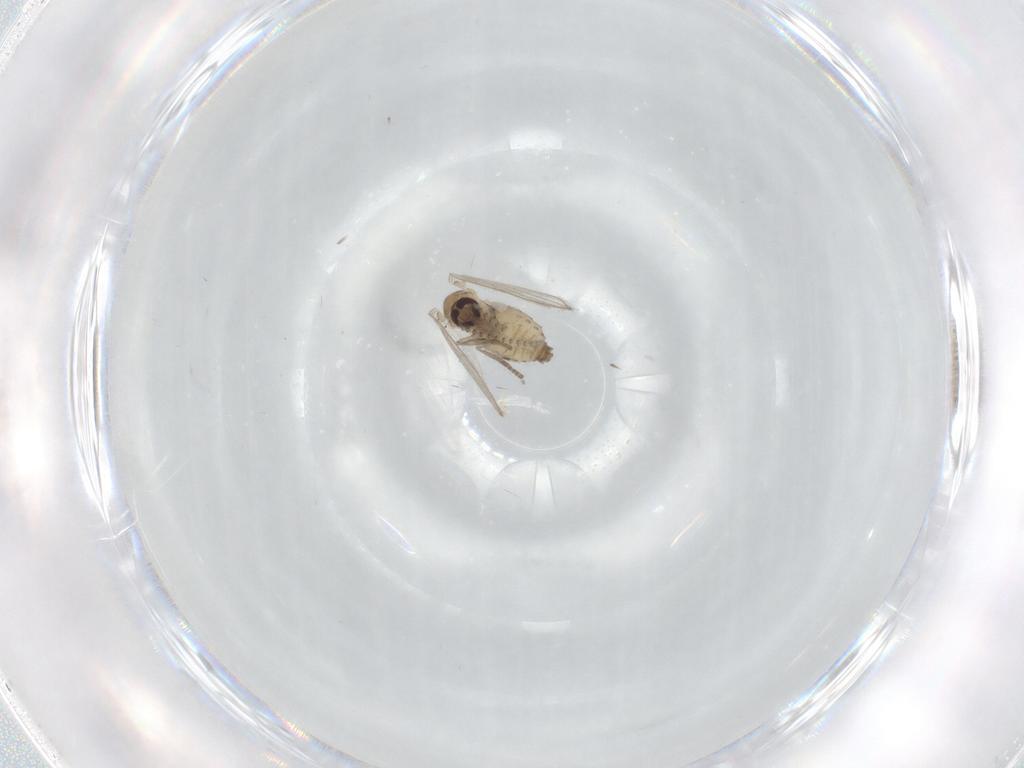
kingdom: Animalia
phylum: Arthropoda
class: Insecta
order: Diptera
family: Psychodidae
